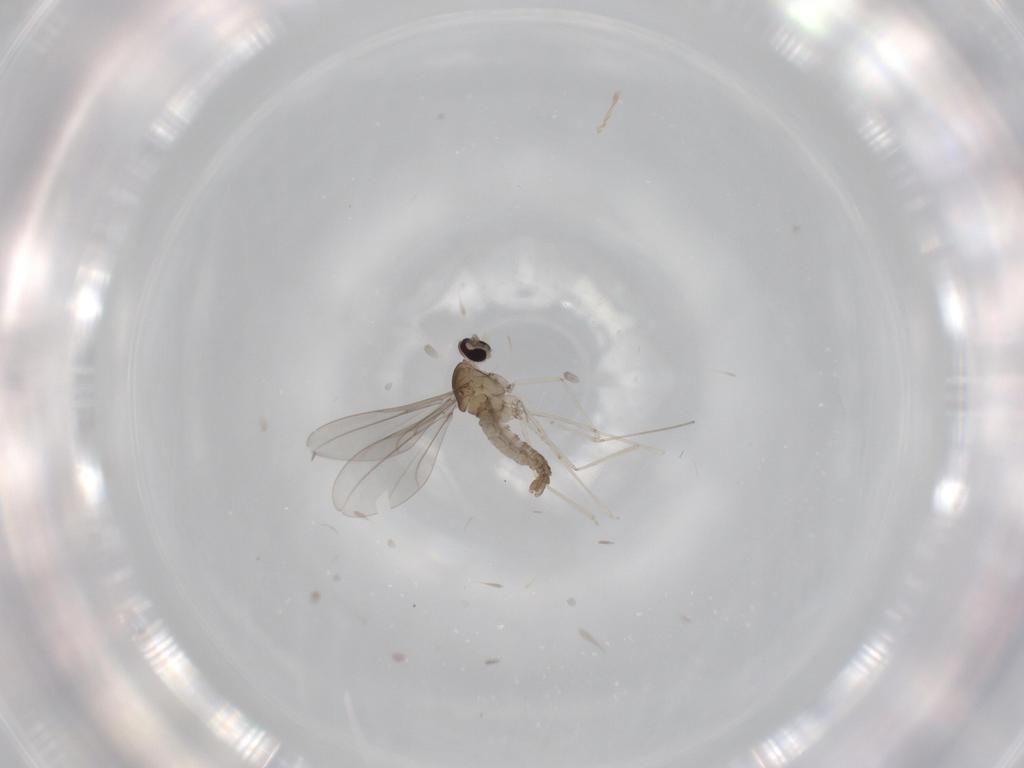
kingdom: Animalia
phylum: Arthropoda
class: Insecta
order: Diptera
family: Cecidomyiidae
